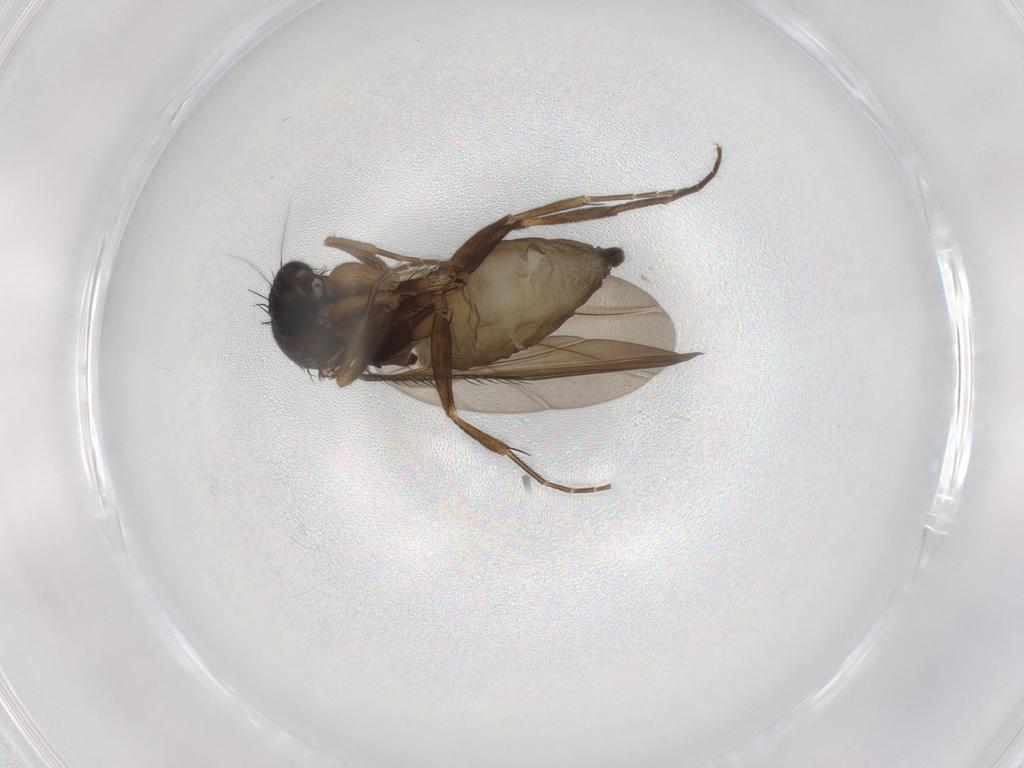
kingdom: Animalia
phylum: Arthropoda
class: Insecta
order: Diptera
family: Phoridae
